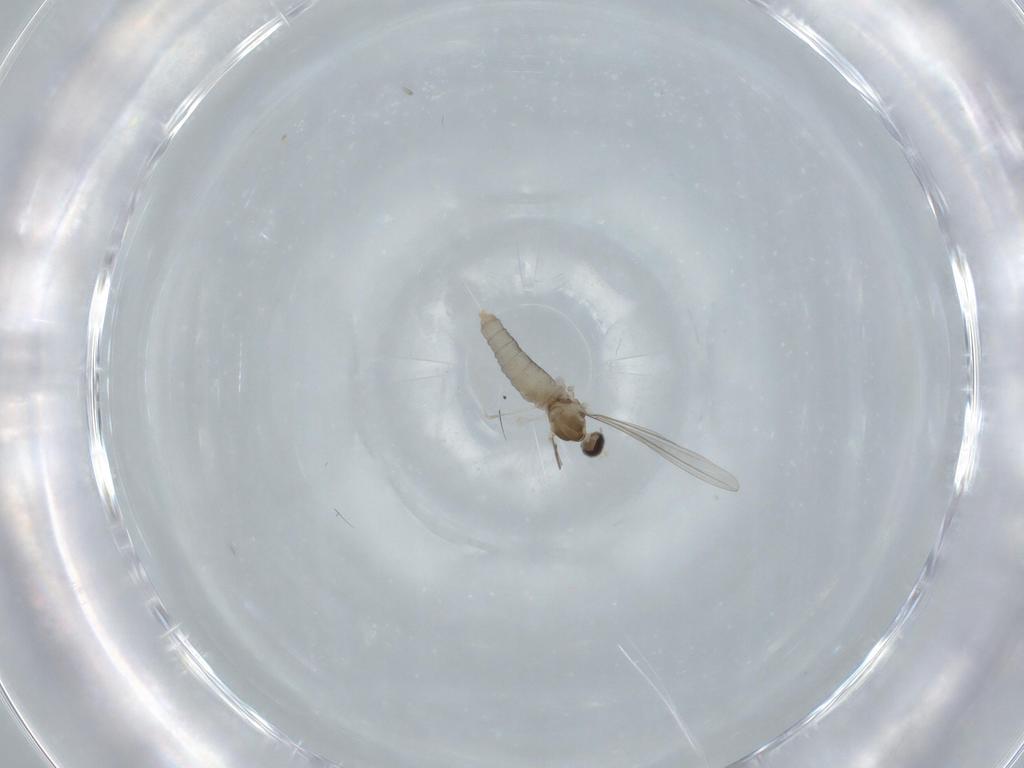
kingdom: Animalia
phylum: Arthropoda
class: Insecta
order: Diptera
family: Cecidomyiidae
